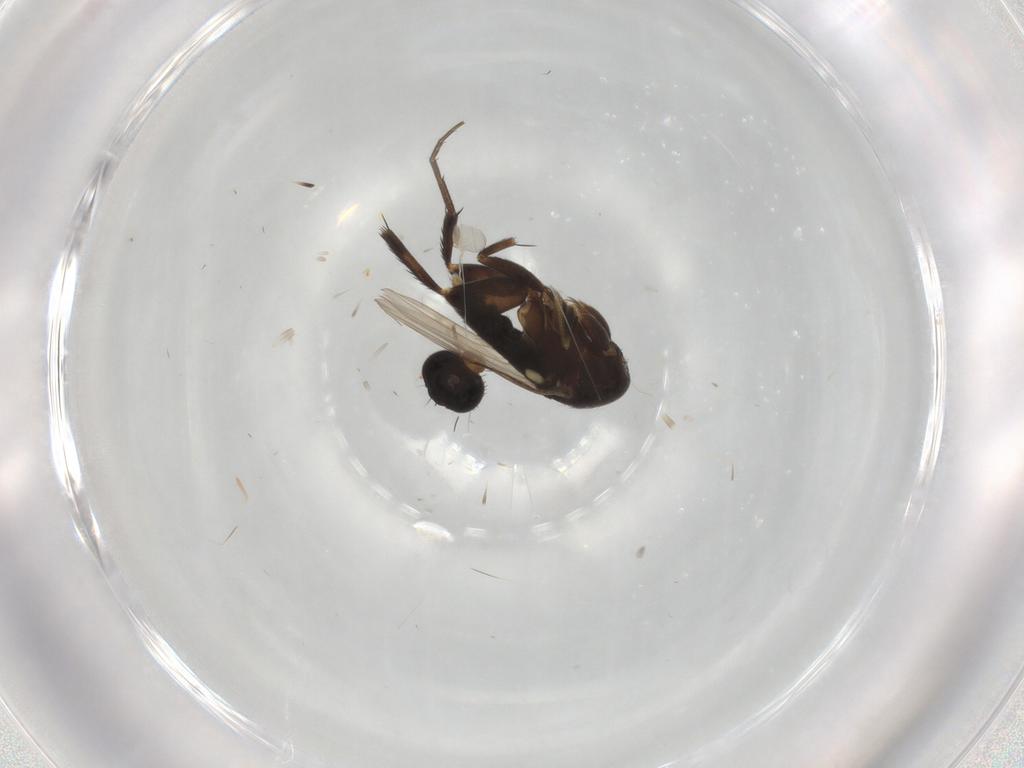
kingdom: Animalia
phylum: Arthropoda
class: Insecta
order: Diptera
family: Phoridae
